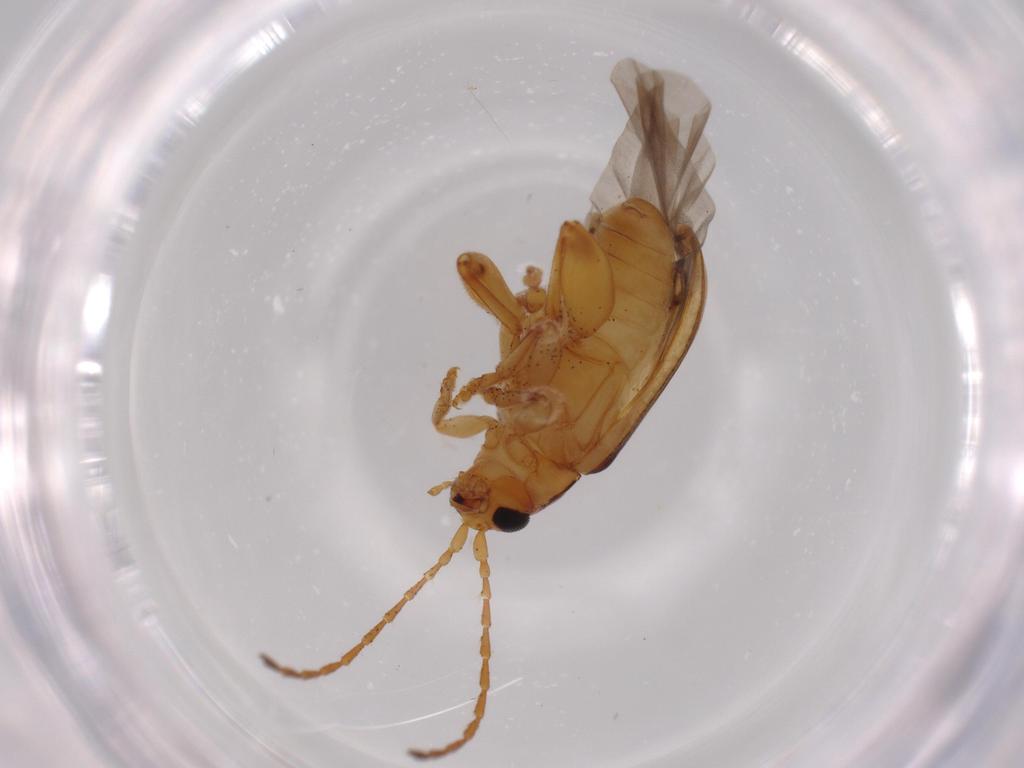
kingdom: Animalia
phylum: Arthropoda
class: Insecta
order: Coleoptera
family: Chrysomelidae
